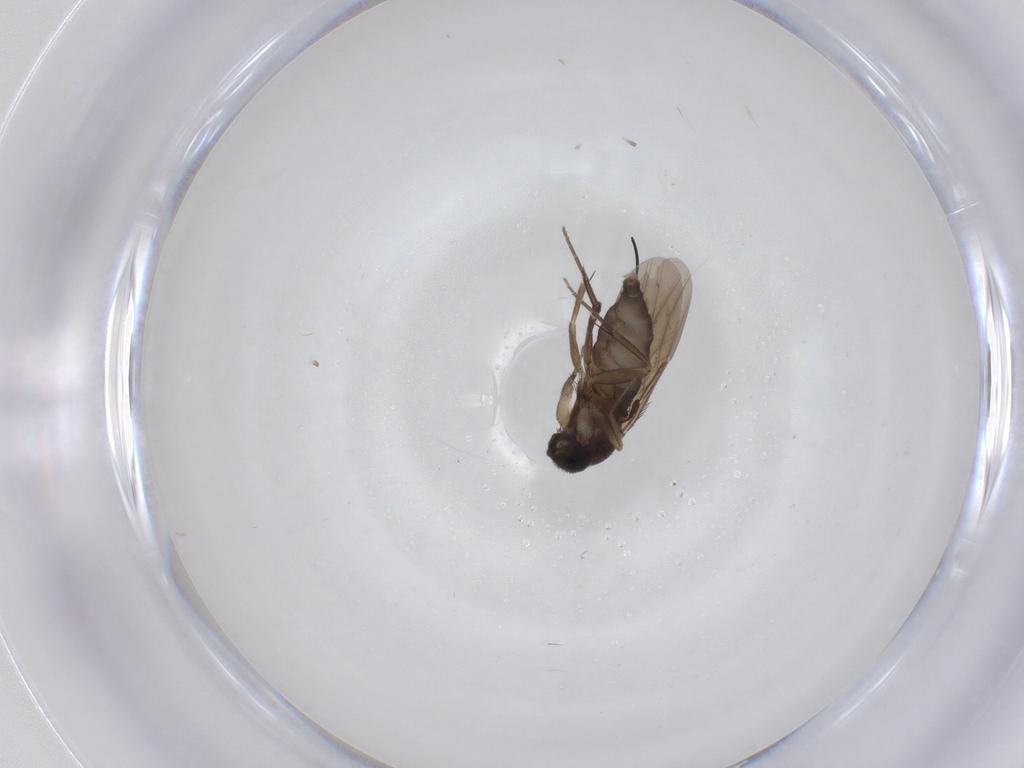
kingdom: Animalia
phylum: Arthropoda
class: Insecta
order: Diptera
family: Phoridae
